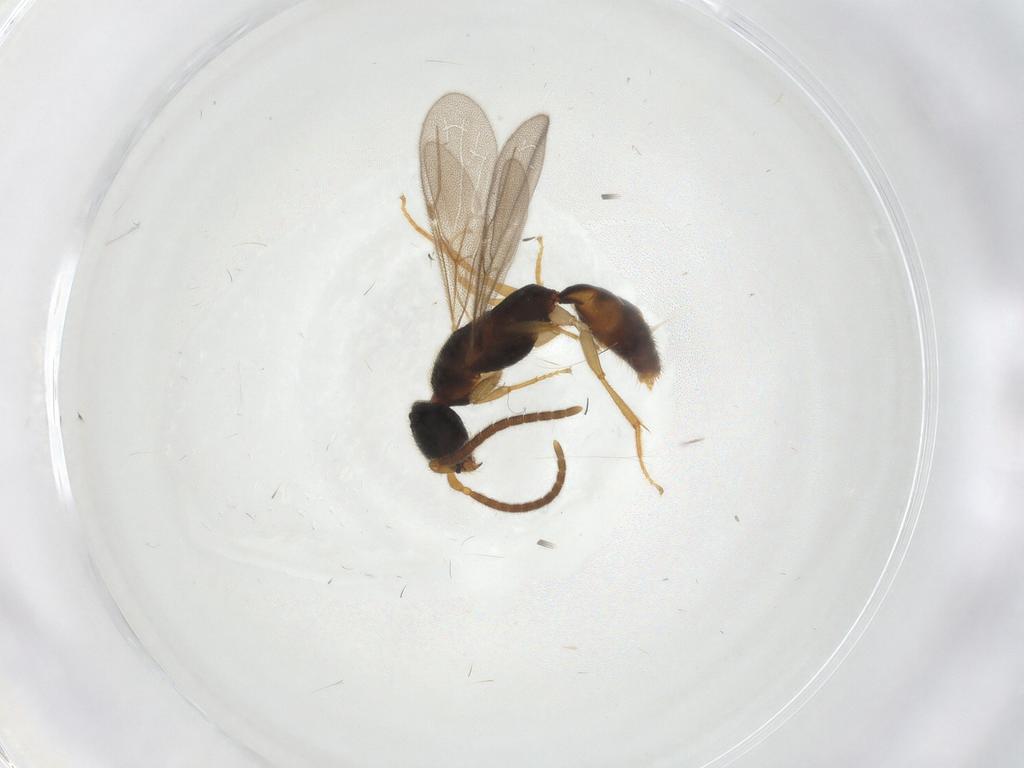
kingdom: Animalia
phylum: Arthropoda
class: Insecta
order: Hymenoptera
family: Bethylidae
